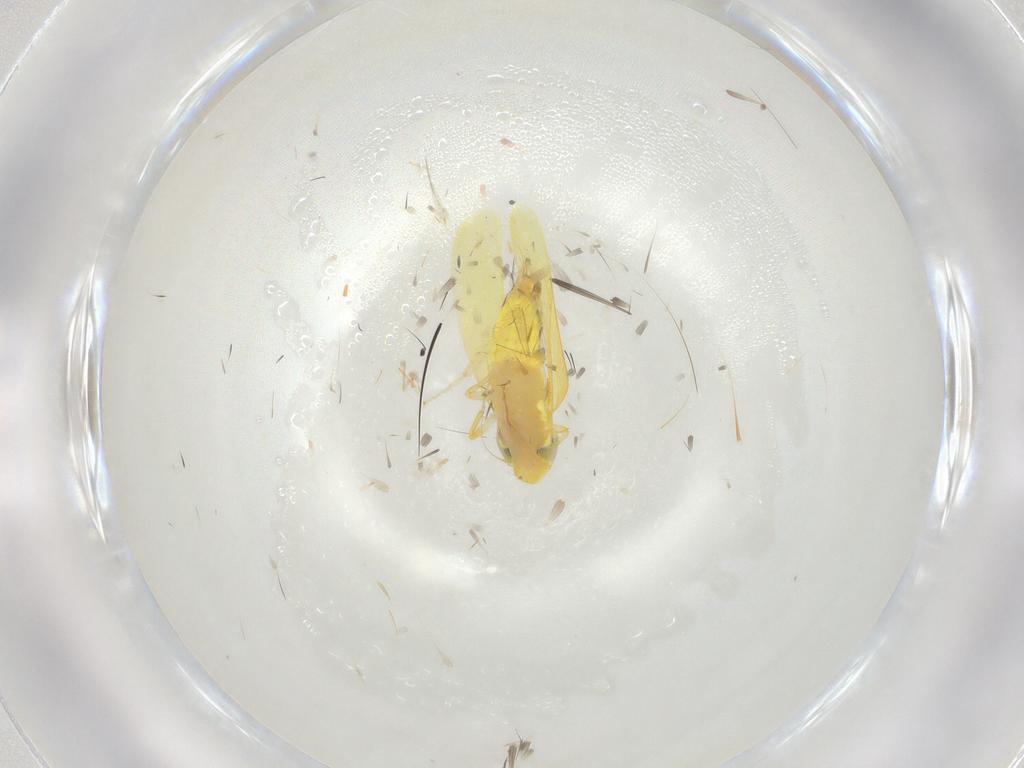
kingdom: Animalia
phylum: Arthropoda
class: Insecta
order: Hemiptera
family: Cicadellidae
